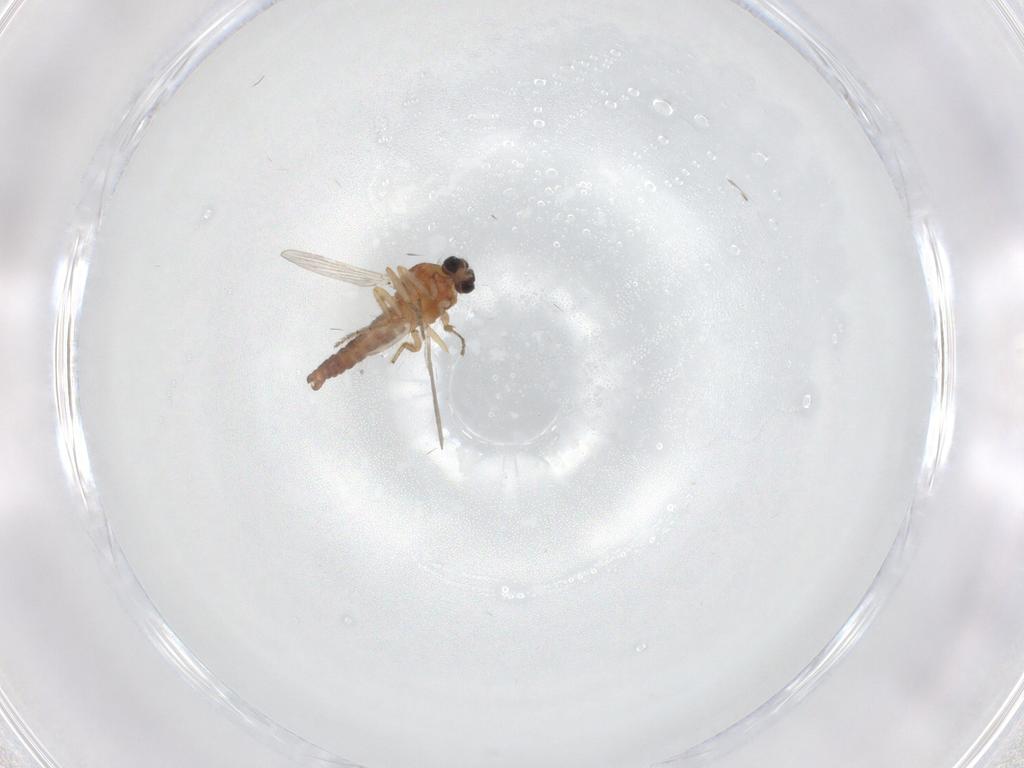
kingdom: Animalia
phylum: Arthropoda
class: Insecta
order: Diptera
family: Ceratopogonidae
